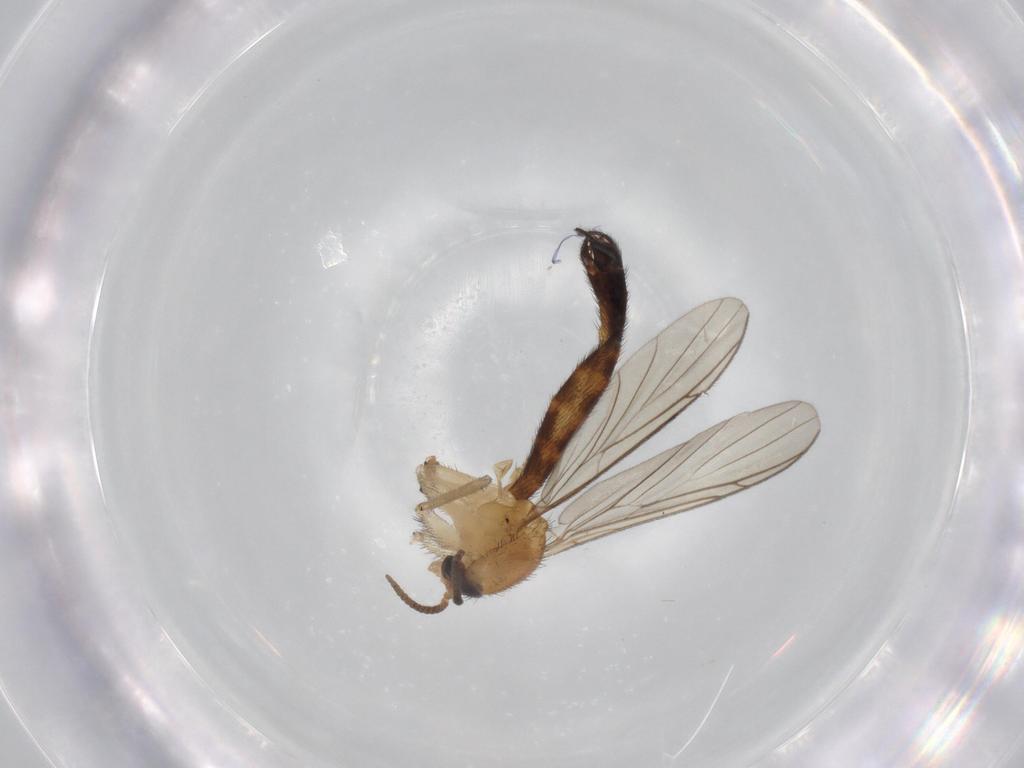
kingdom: Animalia
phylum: Arthropoda
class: Insecta
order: Diptera
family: Keroplatidae
